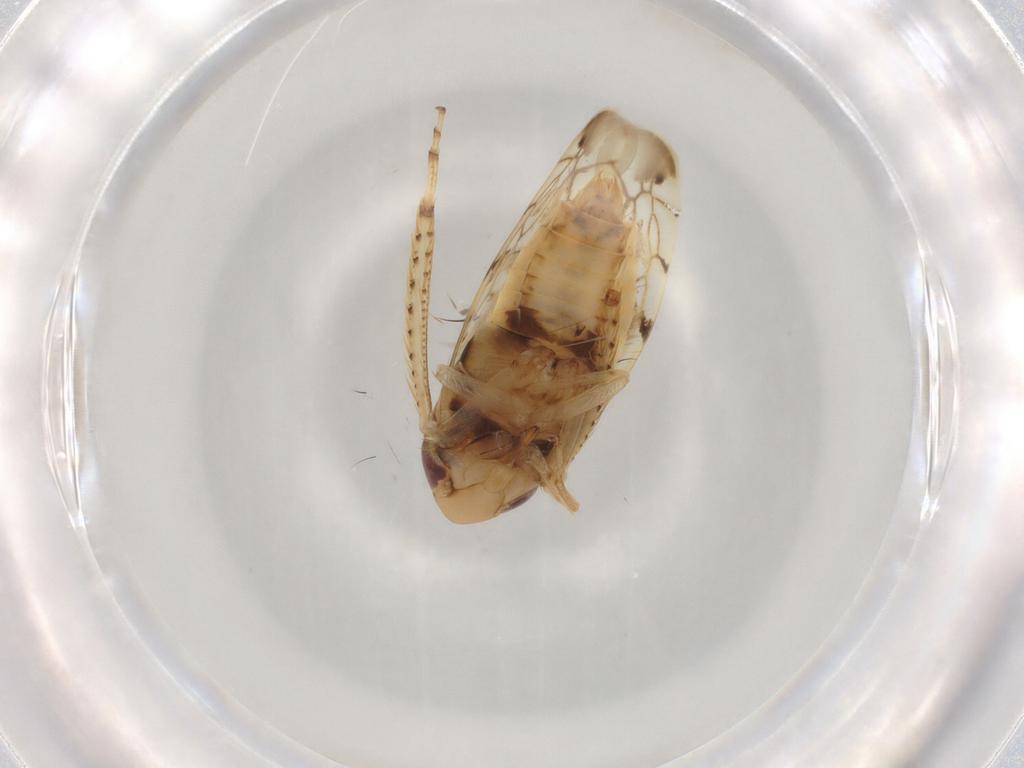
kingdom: Animalia
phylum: Arthropoda
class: Insecta
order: Hemiptera
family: Cicadellidae
